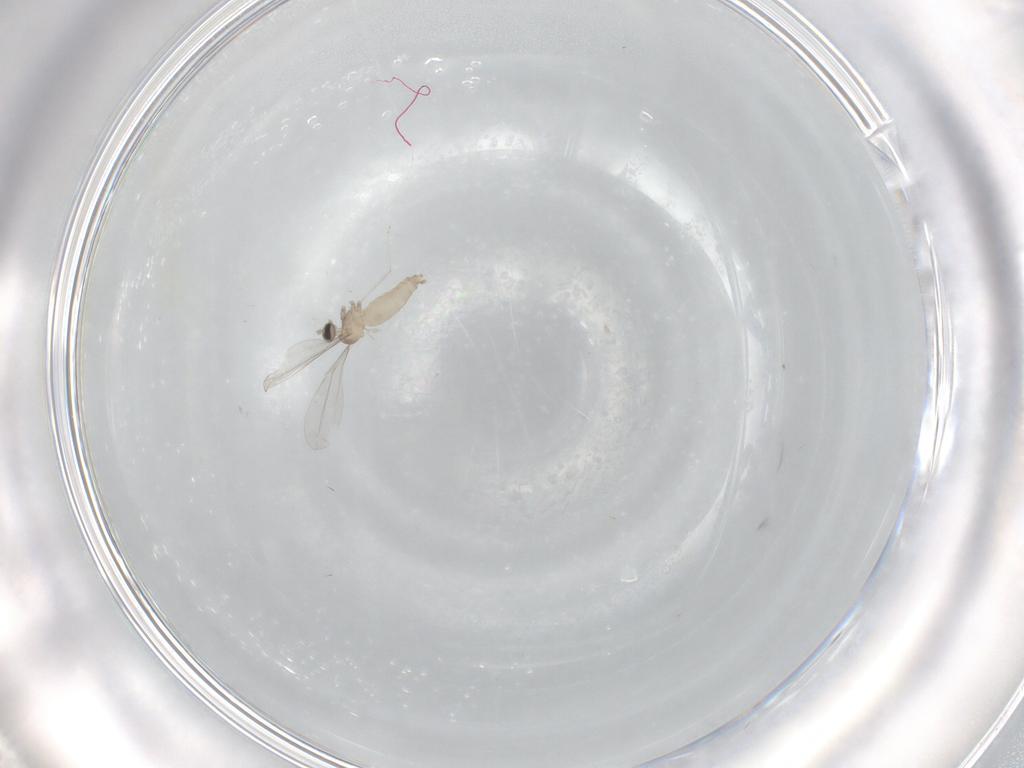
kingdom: Animalia
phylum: Arthropoda
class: Insecta
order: Diptera
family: Cecidomyiidae
